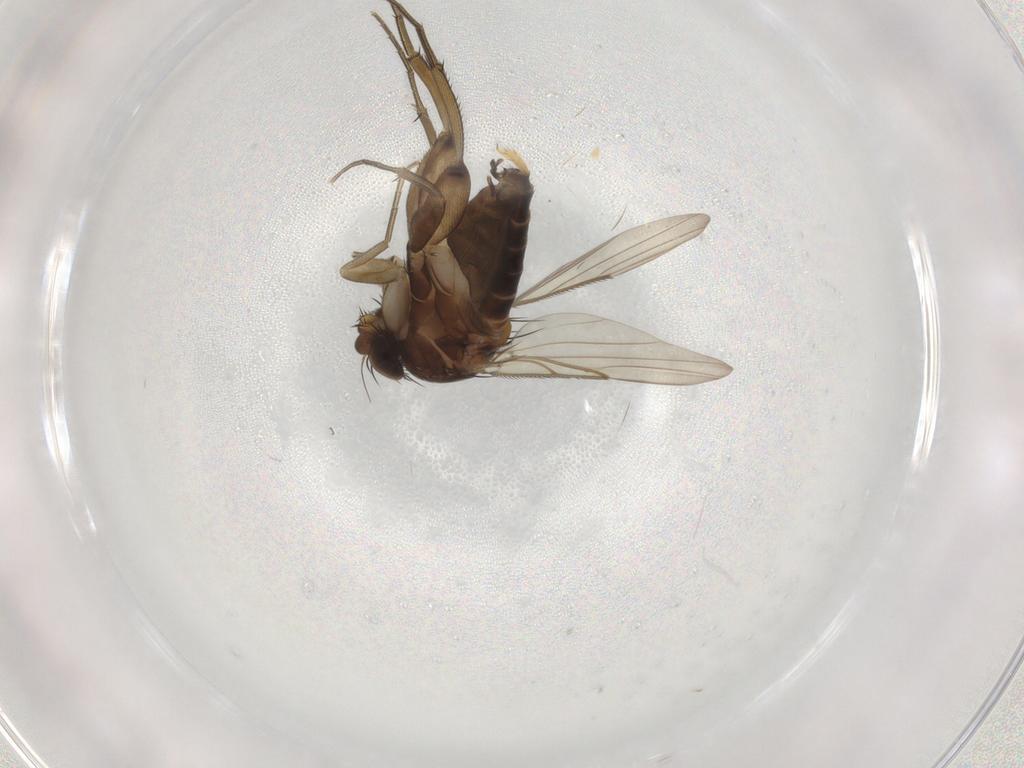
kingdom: Animalia
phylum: Arthropoda
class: Insecta
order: Diptera
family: Phoridae
